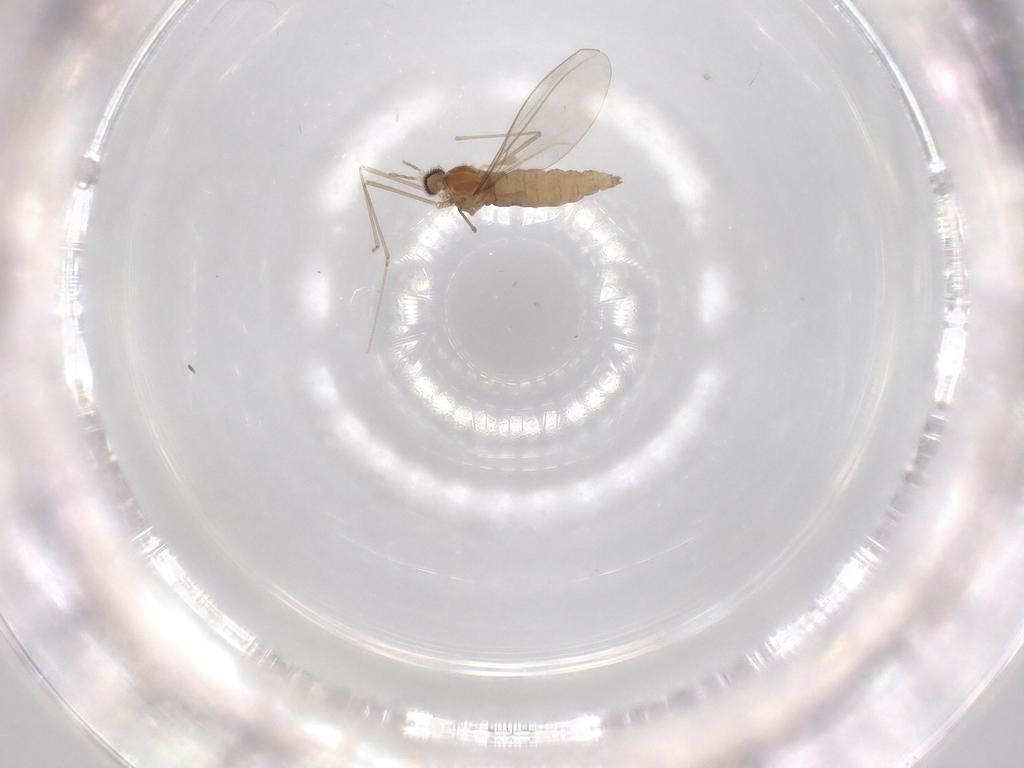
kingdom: Animalia
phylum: Arthropoda
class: Insecta
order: Diptera
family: Cecidomyiidae
